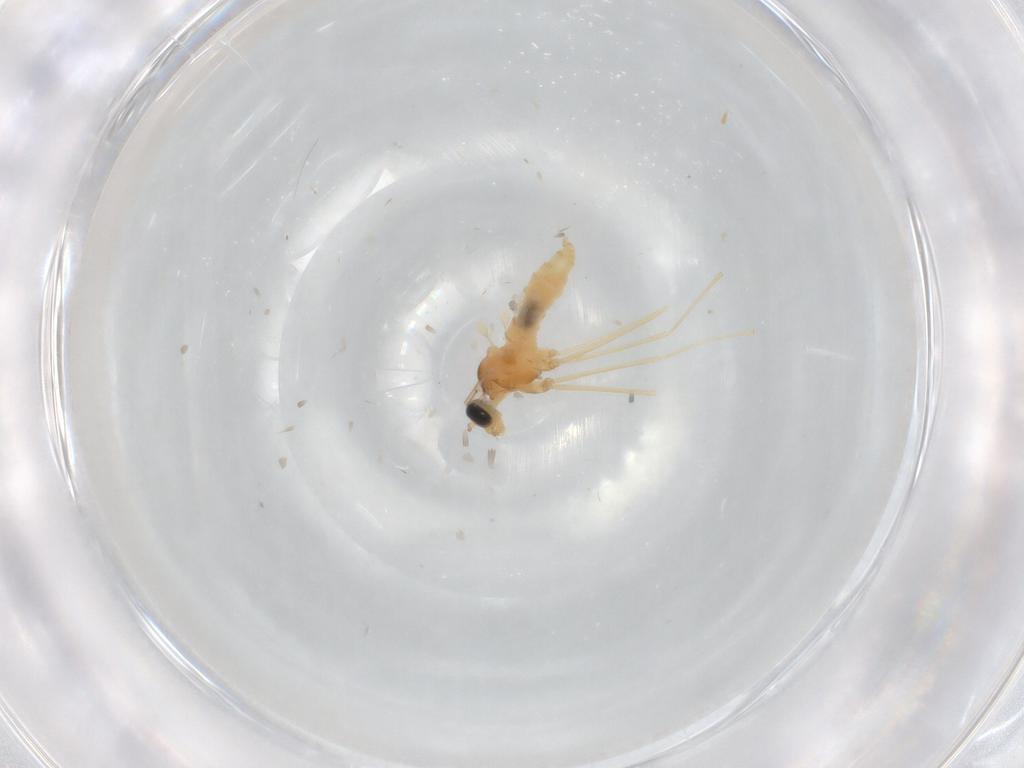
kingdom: Animalia
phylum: Arthropoda
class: Insecta
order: Diptera
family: Cecidomyiidae
